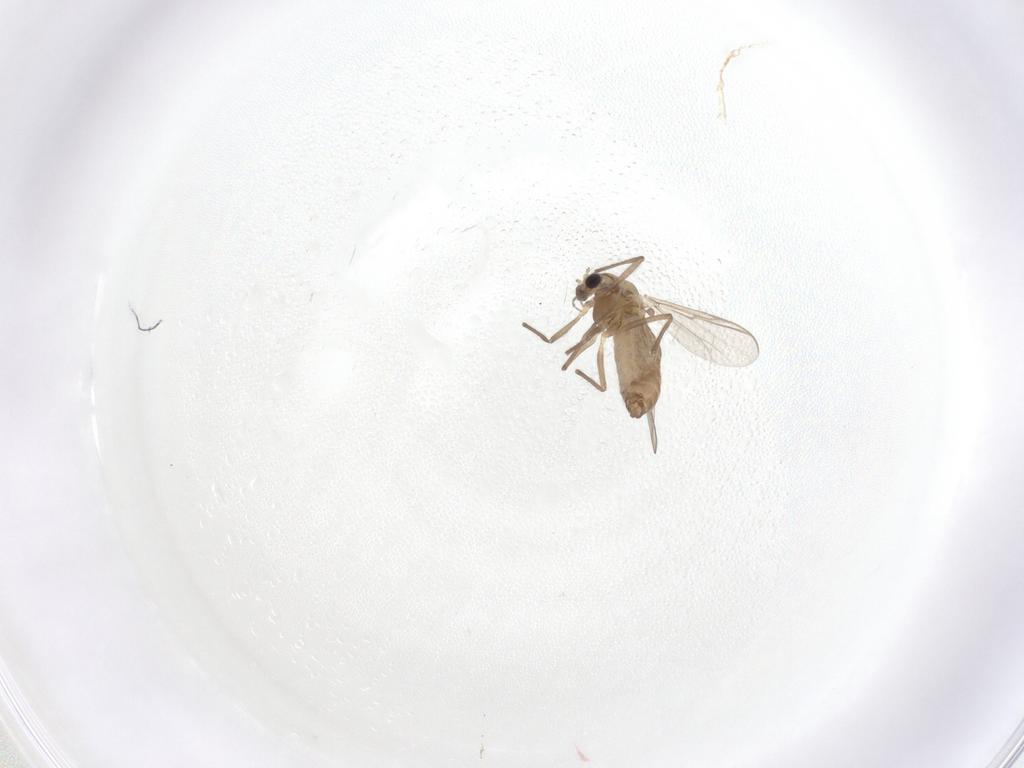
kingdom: Animalia
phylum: Arthropoda
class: Insecta
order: Diptera
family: Chironomidae
